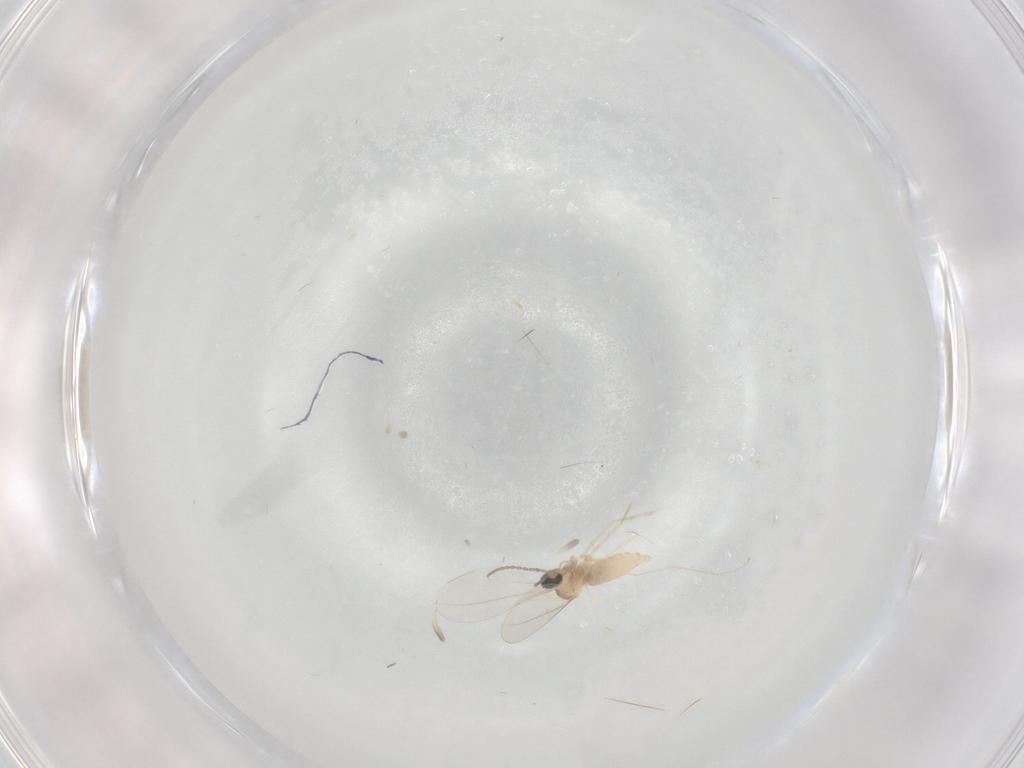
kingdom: Animalia
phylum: Arthropoda
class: Insecta
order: Diptera
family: Cecidomyiidae
